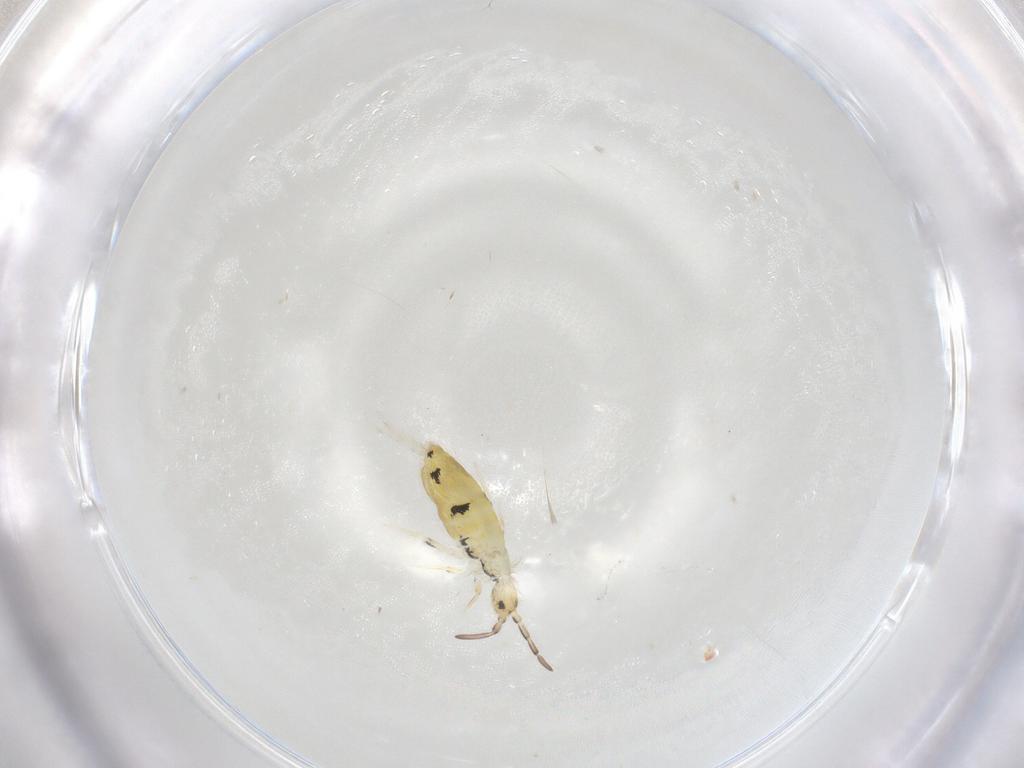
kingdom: Animalia
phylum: Arthropoda
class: Collembola
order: Entomobryomorpha
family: Entomobryidae
